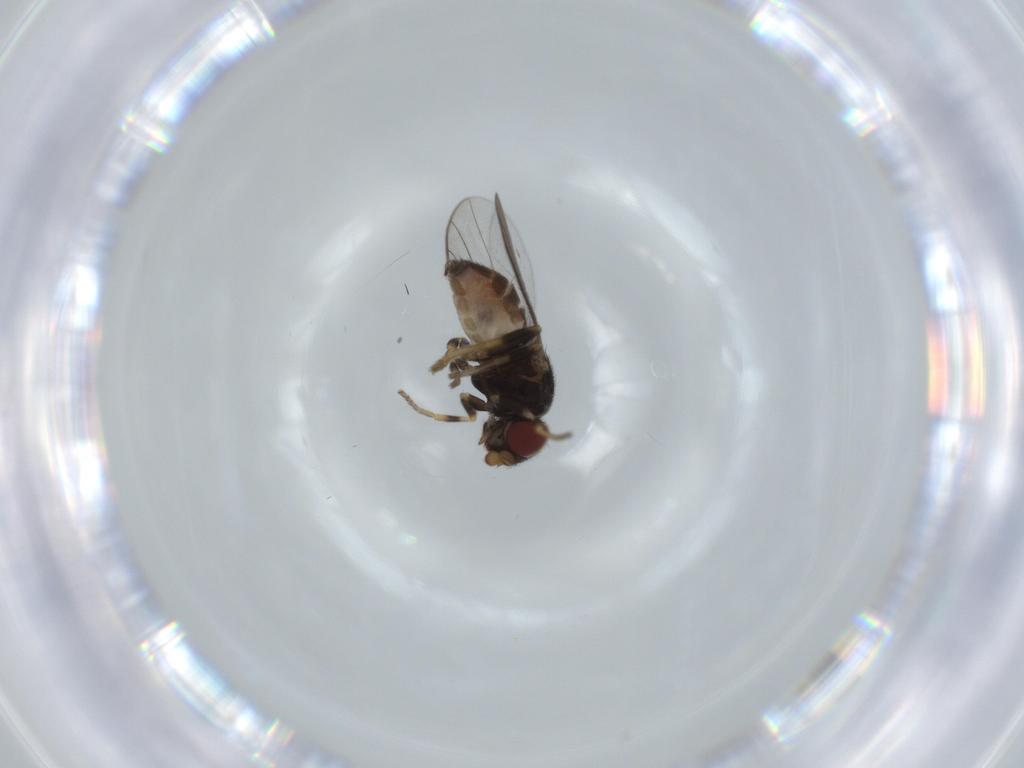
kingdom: Animalia
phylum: Arthropoda
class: Insecta
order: Diptera
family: Chloropidae
